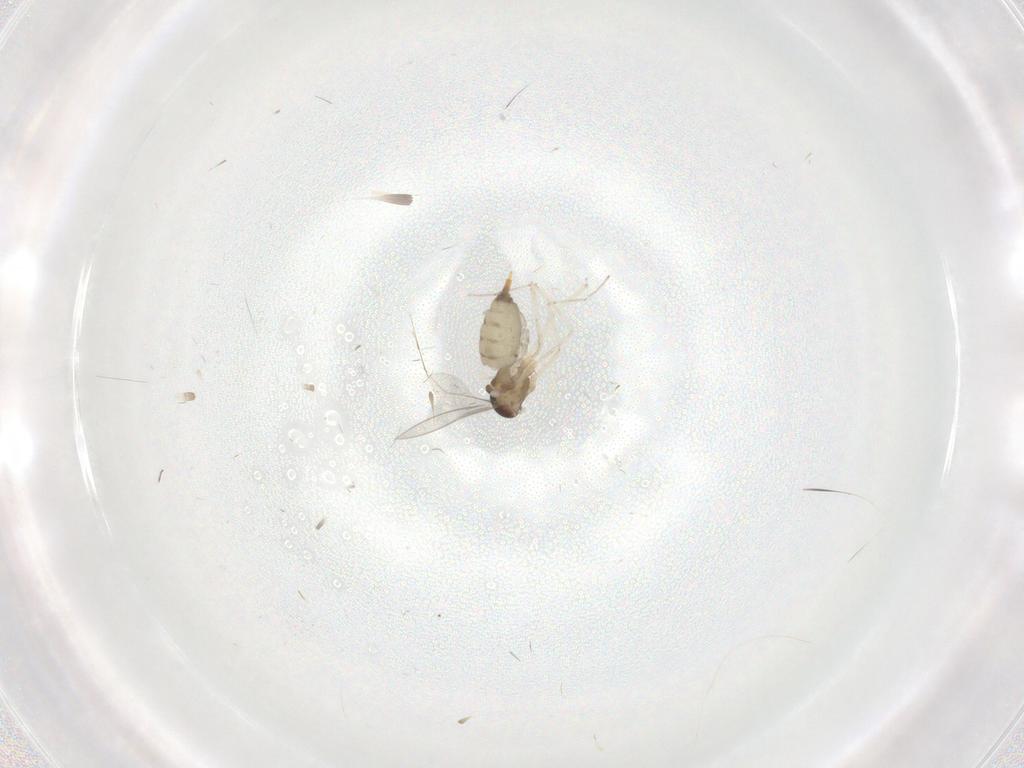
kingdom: Animalia
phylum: Arthropoda
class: Insecta
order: Diptera
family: Cecidomyiidae
